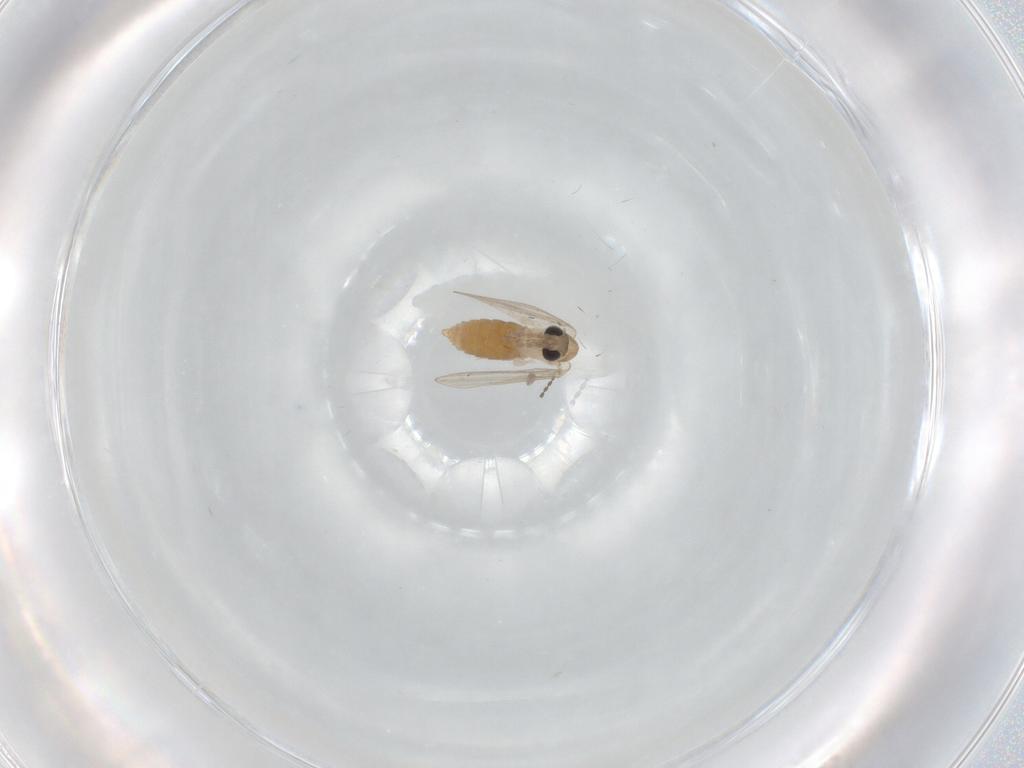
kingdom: Animalia
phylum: Arthropoda
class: Insecta
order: Diptera
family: Psychodidae
